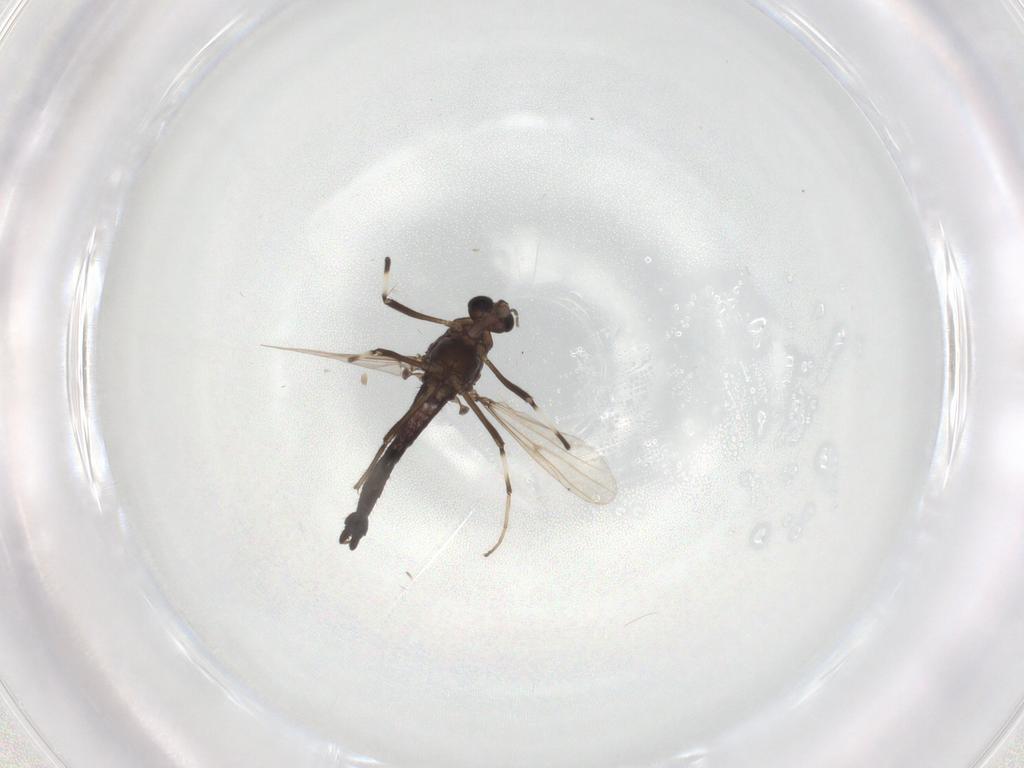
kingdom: Animalia
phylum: Arthropoda
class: Insecta
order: Diptera
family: Chironomidae
